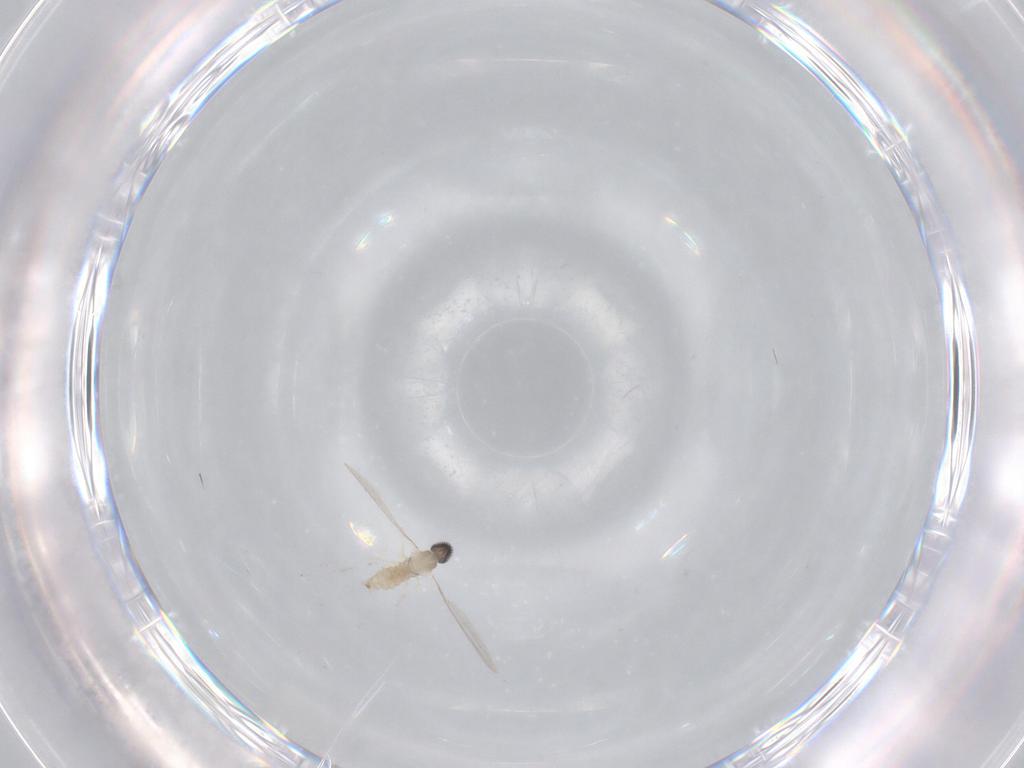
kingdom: Animalia
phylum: Arthropoda
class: Insecta
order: Diptera
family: Cecidomyiidae
